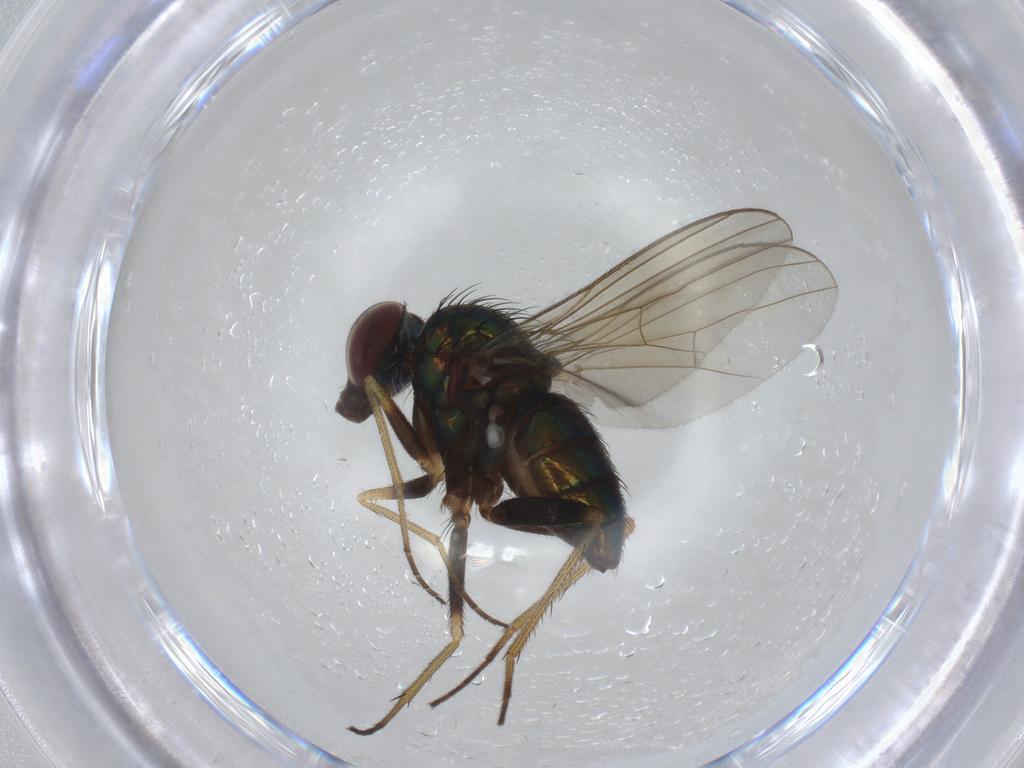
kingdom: Animalia
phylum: Arthropoda
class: Insecta
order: Diptera
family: Dolichopodidae
